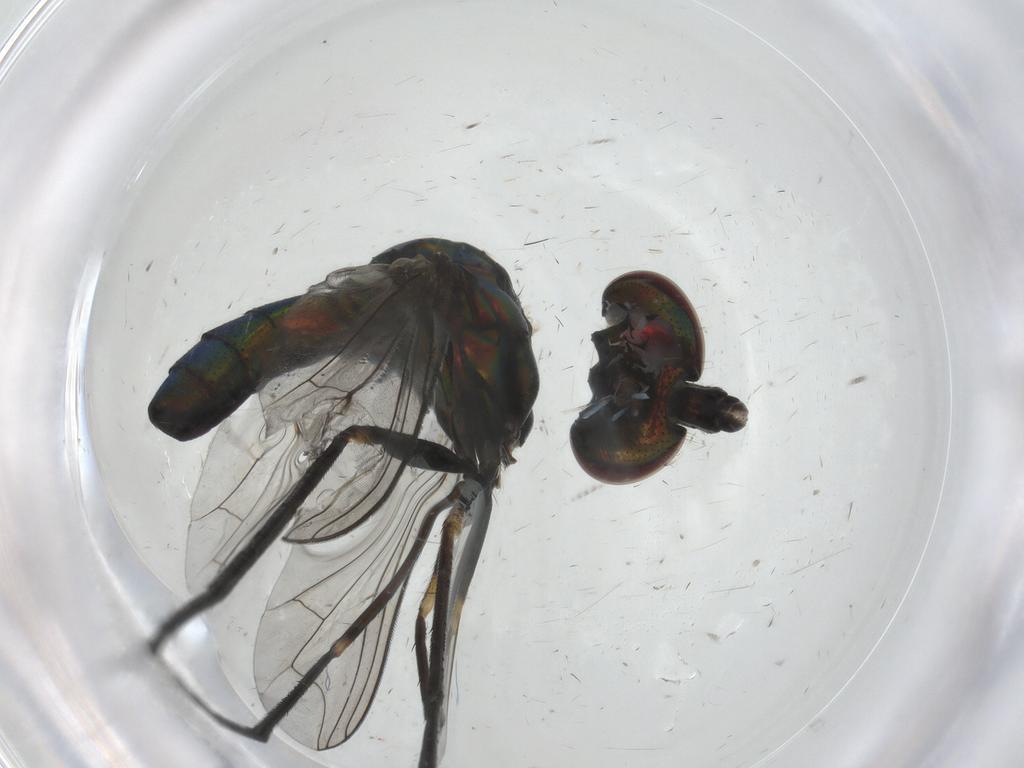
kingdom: Animalia
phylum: Arthropoda
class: Insecta
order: Diptera
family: Dolichopodidae
